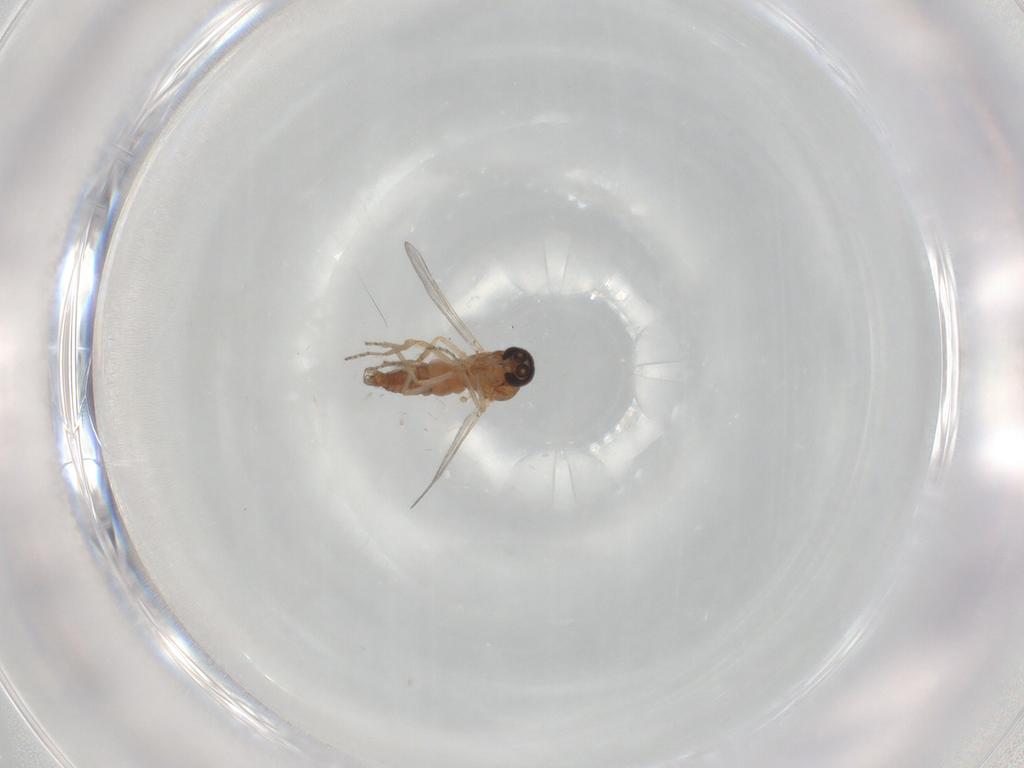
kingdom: Animalia
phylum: Arthropoda
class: Insecta
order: Diptera
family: Ceratopogonidae
